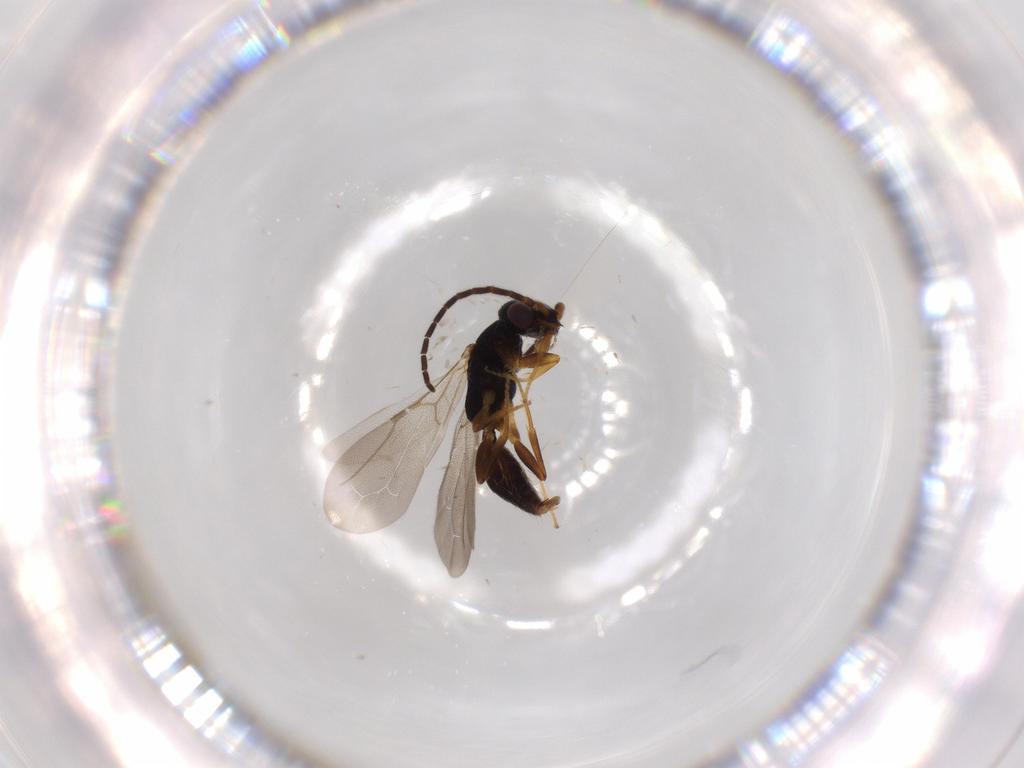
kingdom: Animalia
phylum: Arthropoda
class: Insecta
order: Hymenoptera
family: Bethylidae
